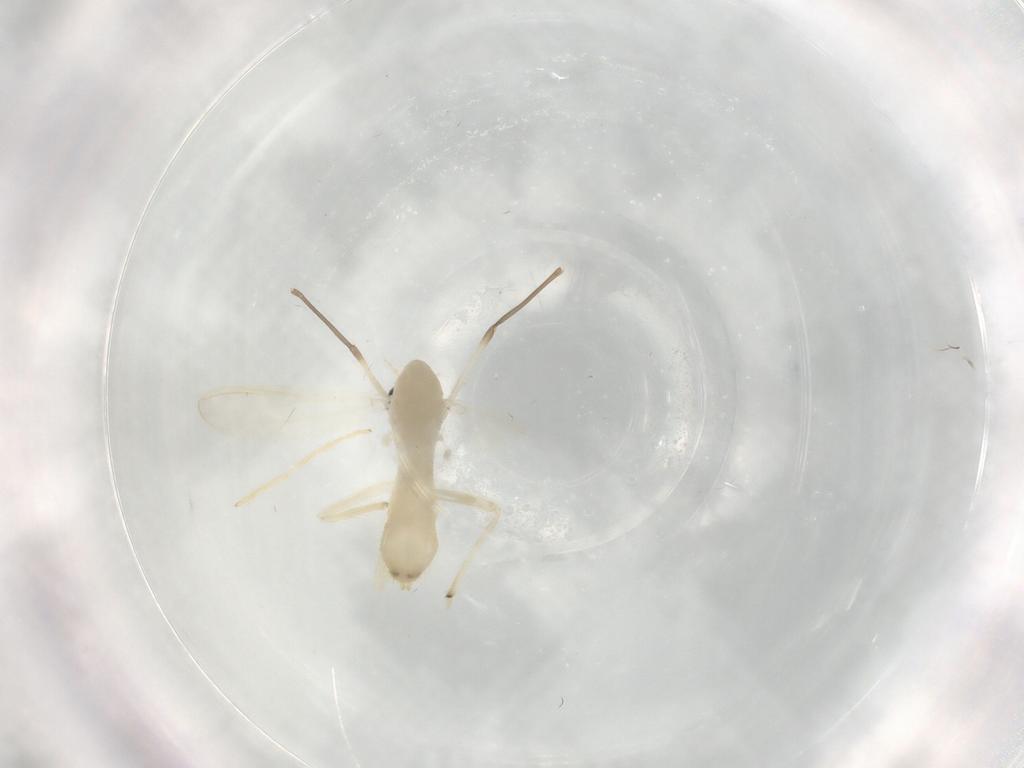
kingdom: Animalia
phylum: Arthropoda
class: Insecta
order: Diptera
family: Chironomidae
